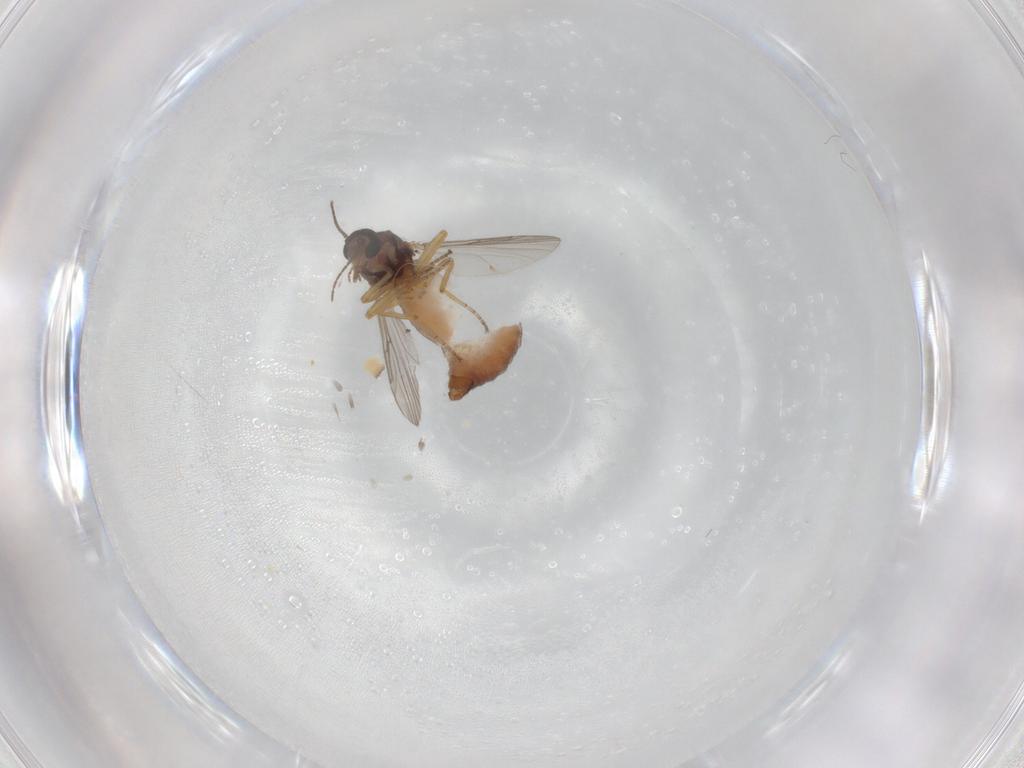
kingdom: Animalia
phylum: Arthropoda
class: Insecta
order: Diptera
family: Ceratopogonidae
